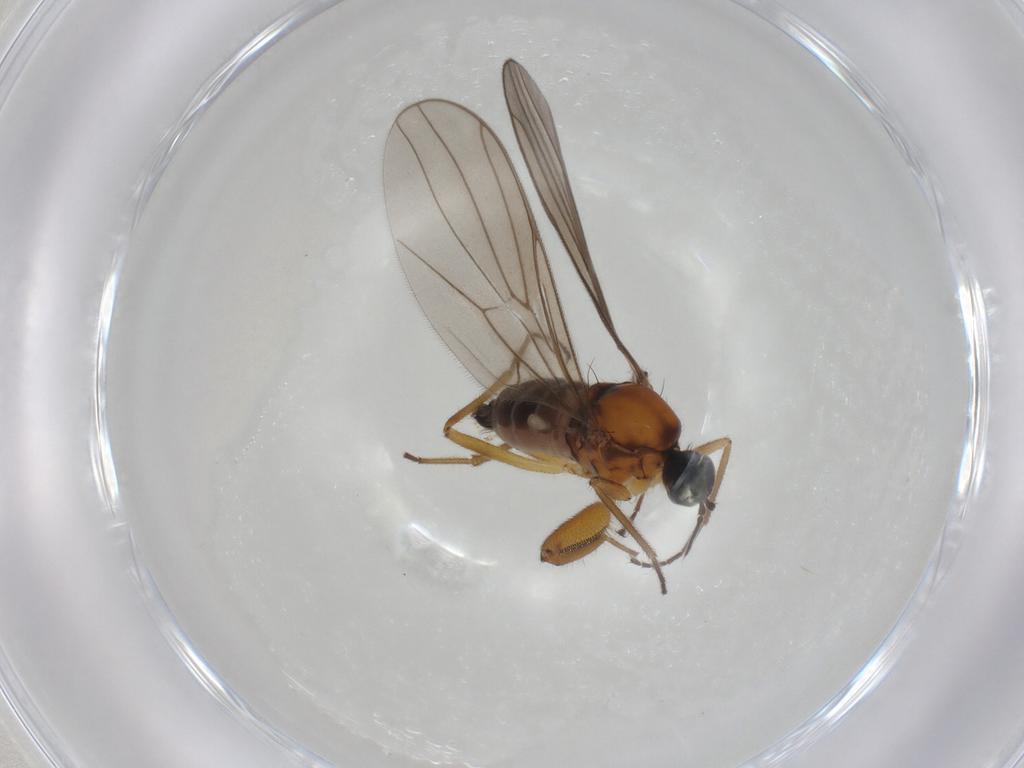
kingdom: Animalia
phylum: Arthropoda
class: Insecta
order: Diptera
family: Hybotidae
